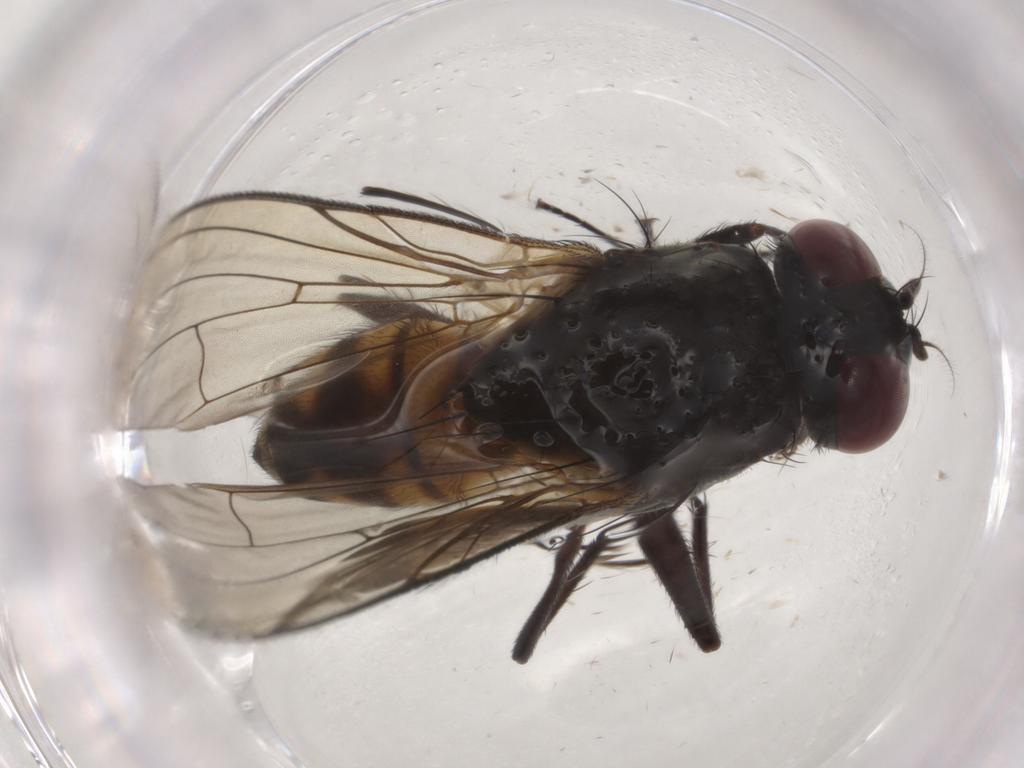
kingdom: Animalia
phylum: Arthropoda
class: Insecta
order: Diptera
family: Muscidae
